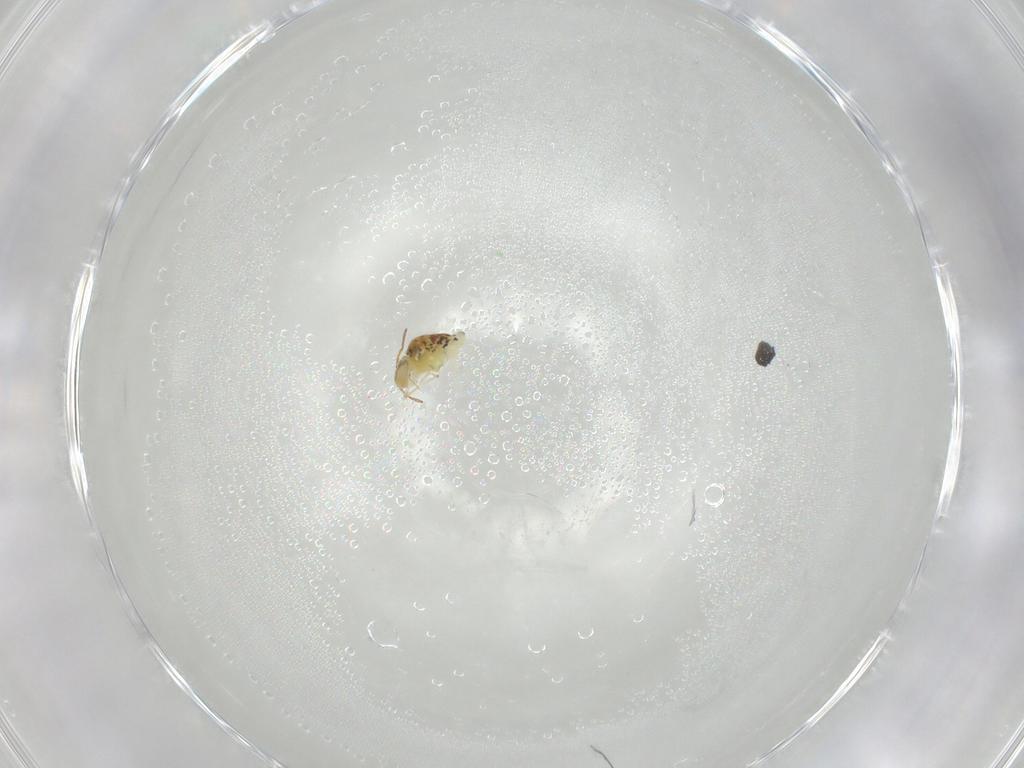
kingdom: Animalia
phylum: Arthropoda
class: Collembola
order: Symphypleona
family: Bourletiellidae
